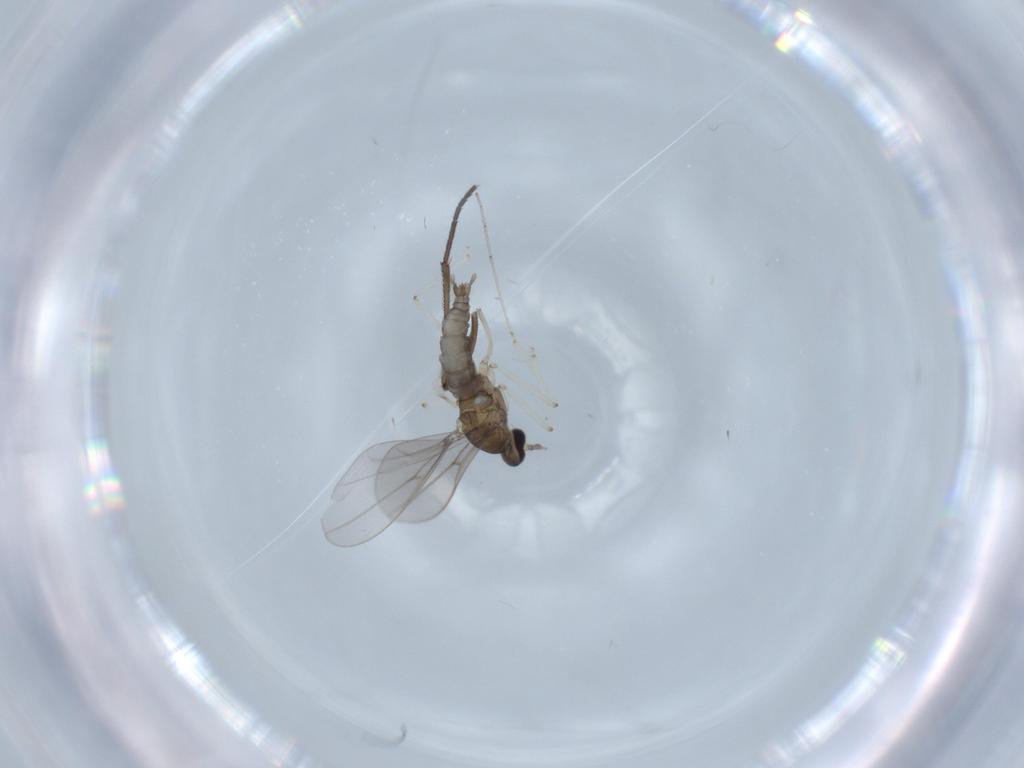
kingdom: Animalia
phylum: Arthropoda
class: Insecta
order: Diptera
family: Cecidomyiidae
